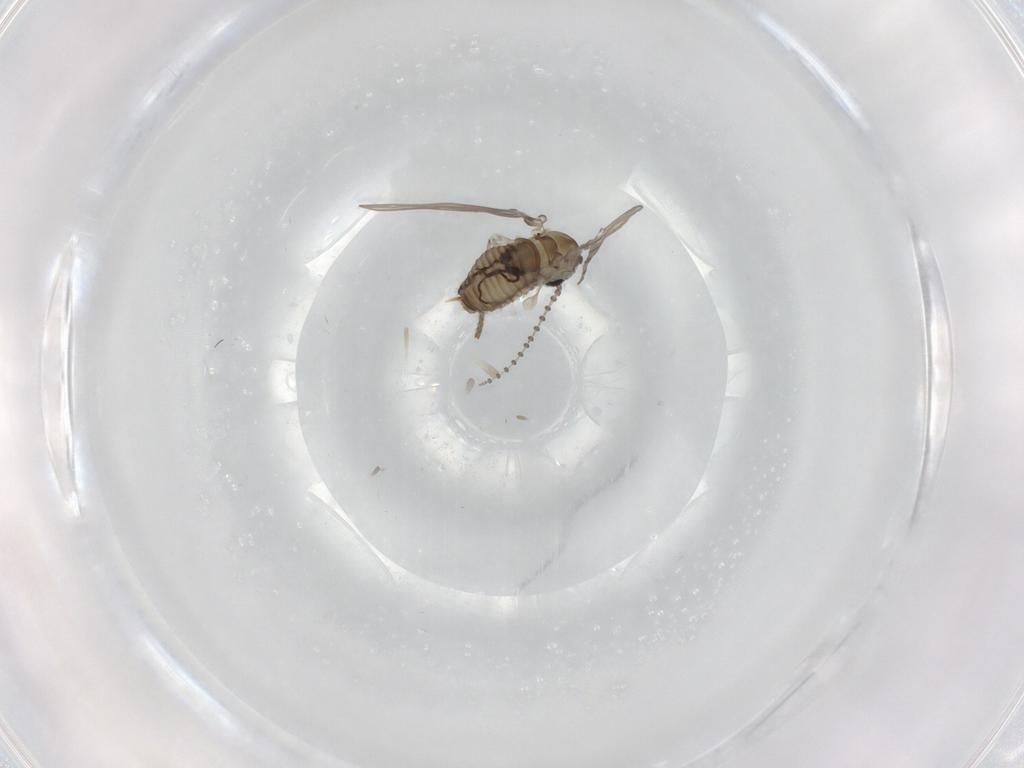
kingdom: Animalia
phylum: Arthropoda
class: Insecta
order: Diptera
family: Psychodidae
